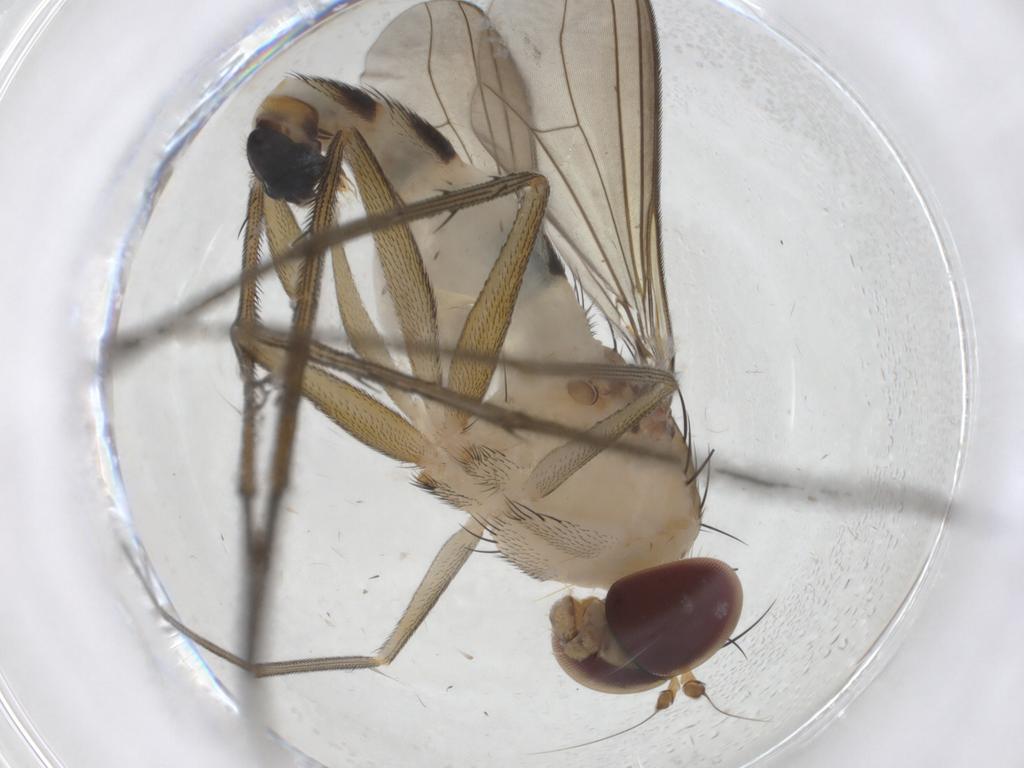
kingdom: Animalia
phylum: Arthropoda
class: Insecta
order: Diptera
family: Dolichopodidae
